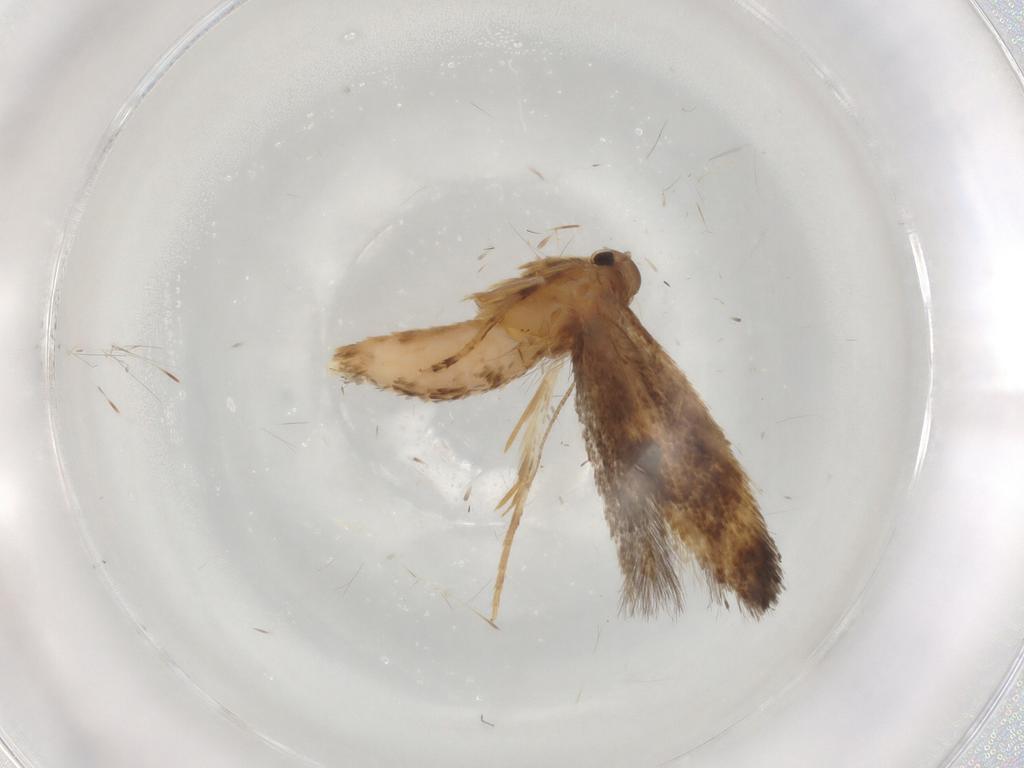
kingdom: Animalia
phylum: Arthropoda
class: Insecta
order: Lepidoptera
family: Elachistidae
